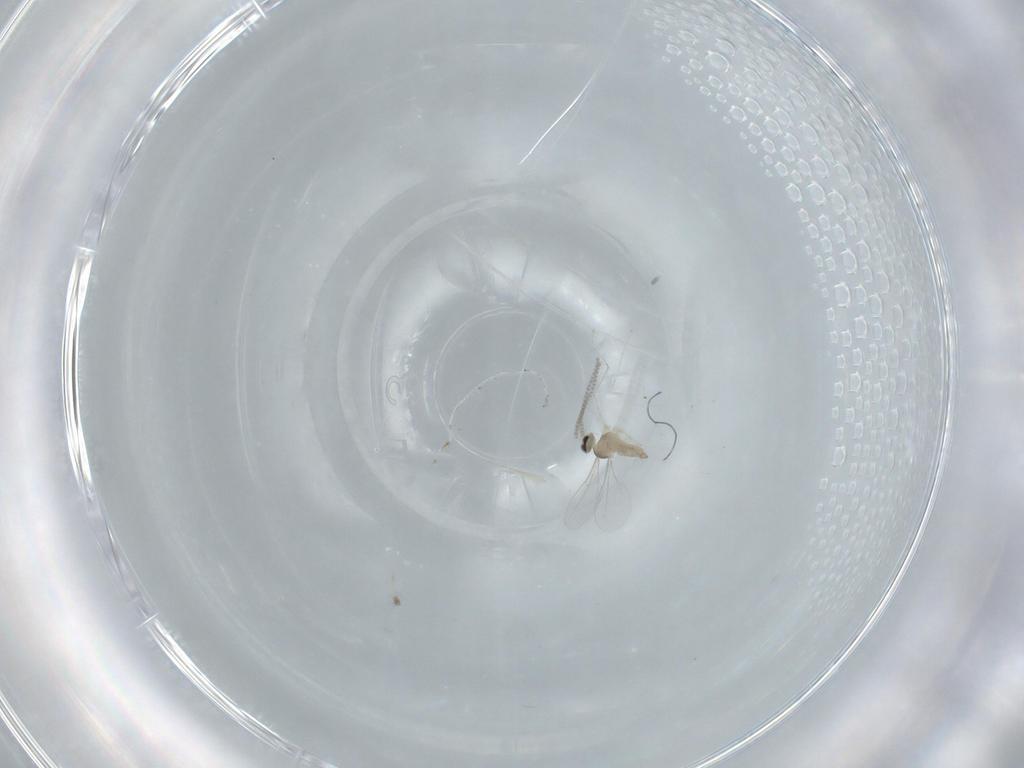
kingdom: Animalia
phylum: Arthropoda
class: Insecta
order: Diptera
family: Cecidomyiidae
